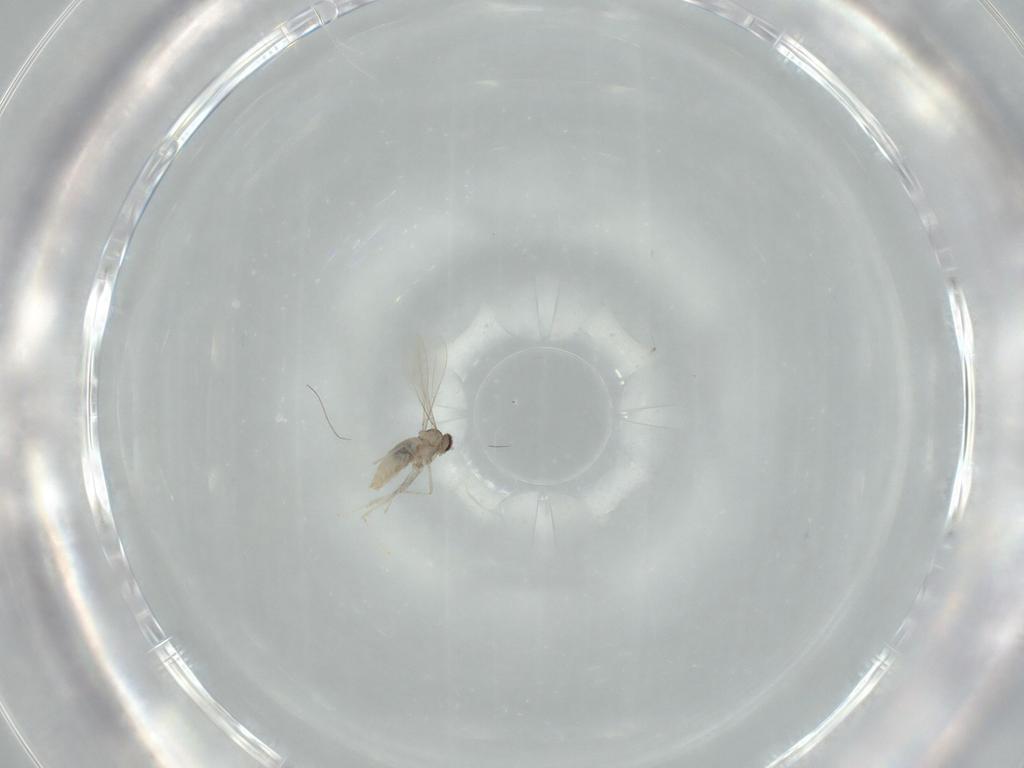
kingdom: Animalia
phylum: Arthropoda
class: Insecta
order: Diptera
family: Cecidomyiidae
